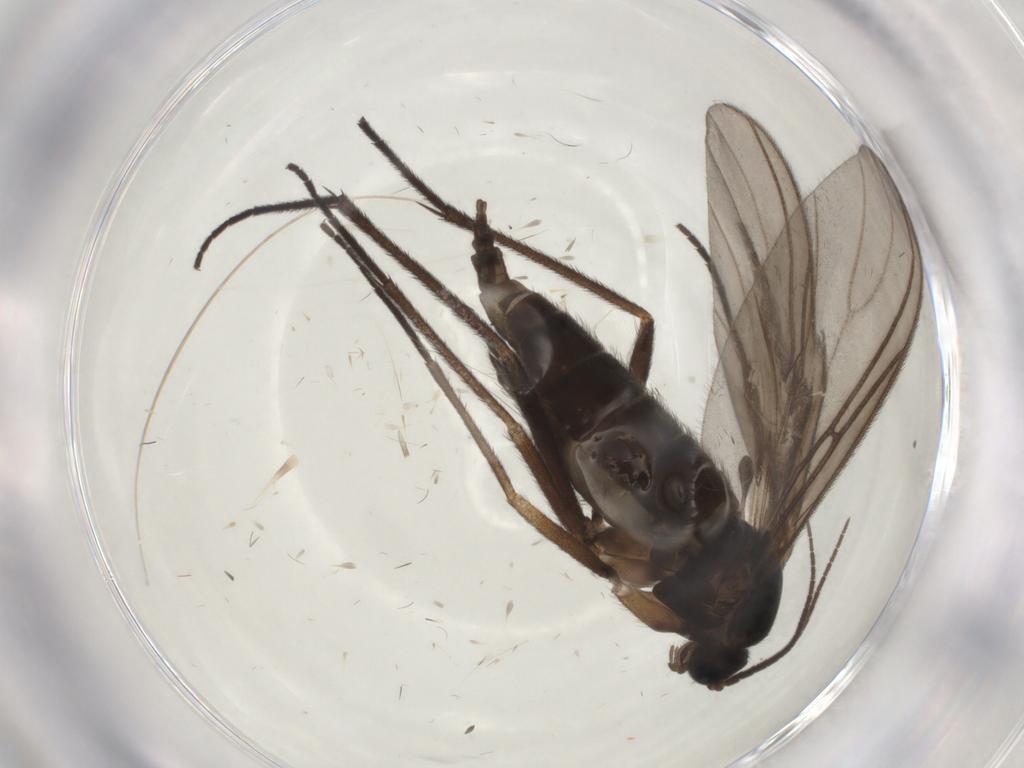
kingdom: Animalia
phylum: Arthropoda
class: Insecta
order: Diptera
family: Sciaridae
